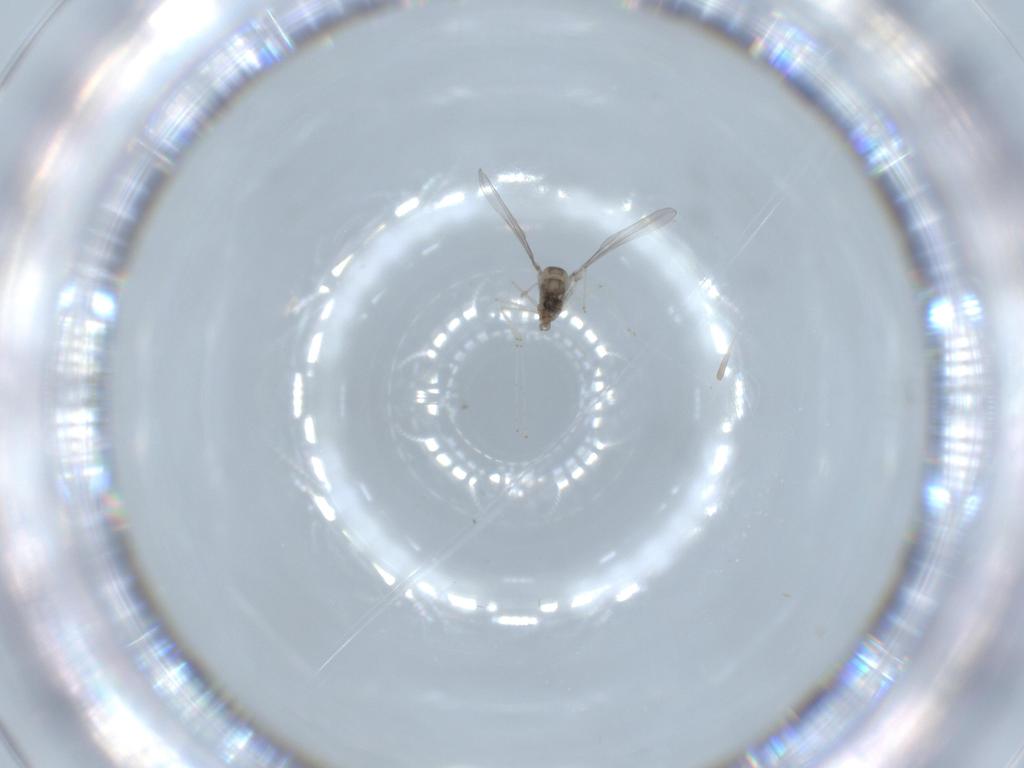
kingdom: Animalia
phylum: Arthropoda
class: Insecta
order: Diptera
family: Cecidomyiidae
